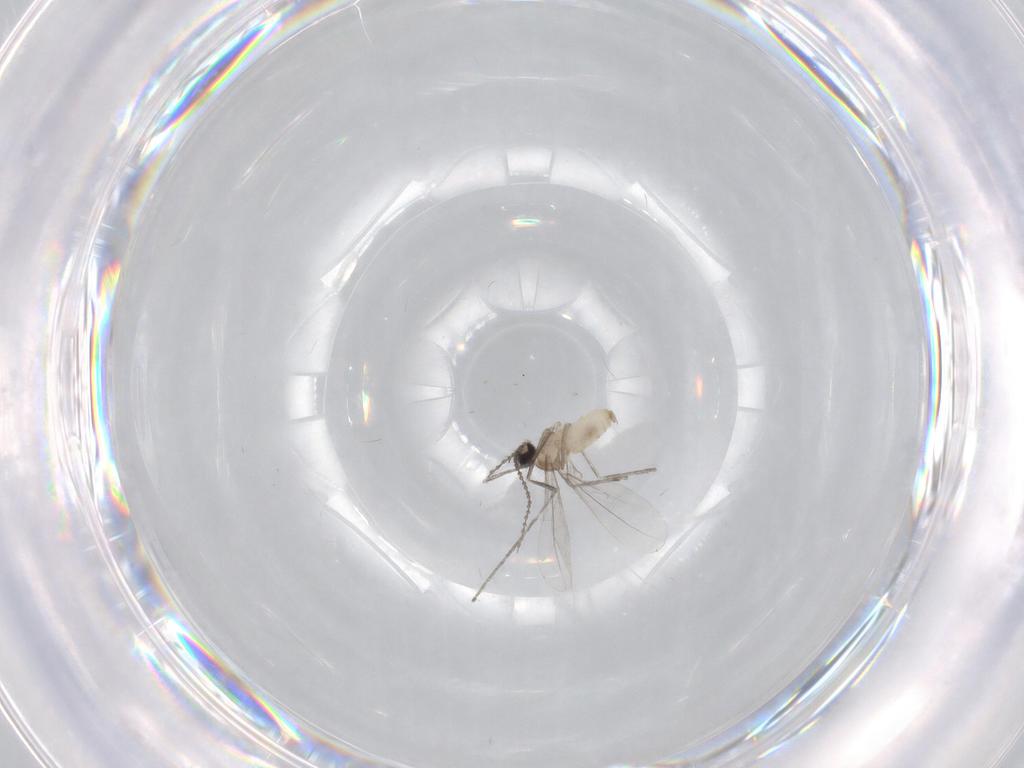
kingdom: Animalia
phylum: Arthropoda
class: Insecta
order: Diptera
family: Cecidomyiidae
